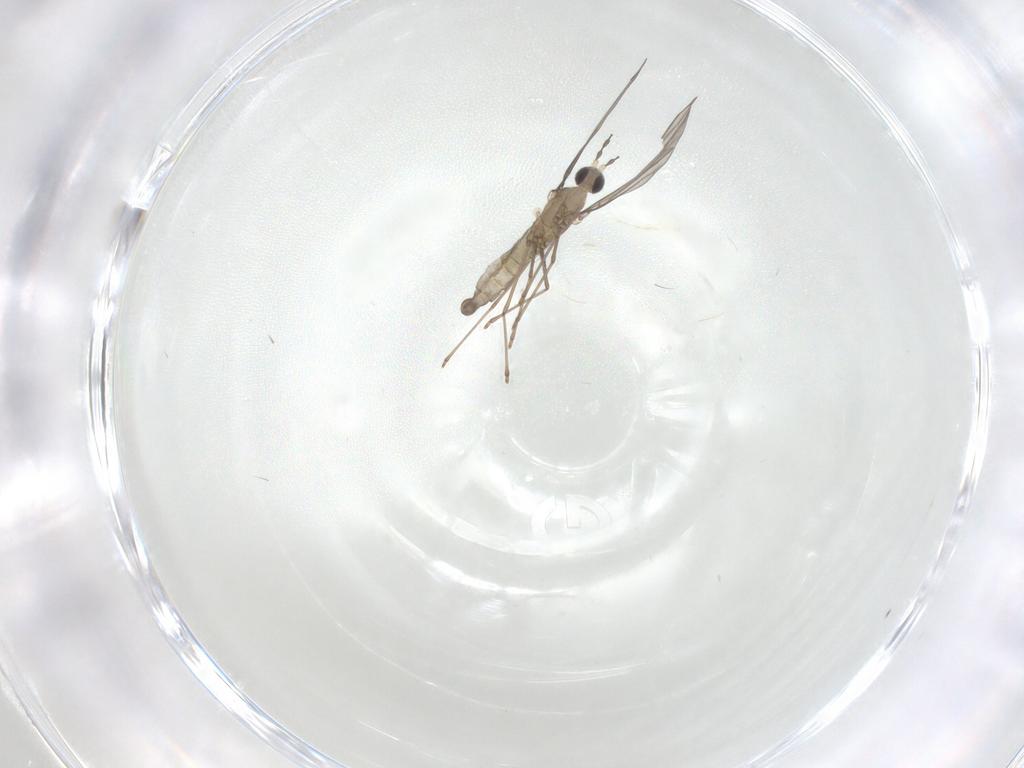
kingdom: Animalia
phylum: Arthropoda
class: Insecta
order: Diptera
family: Cecidomyiidae
